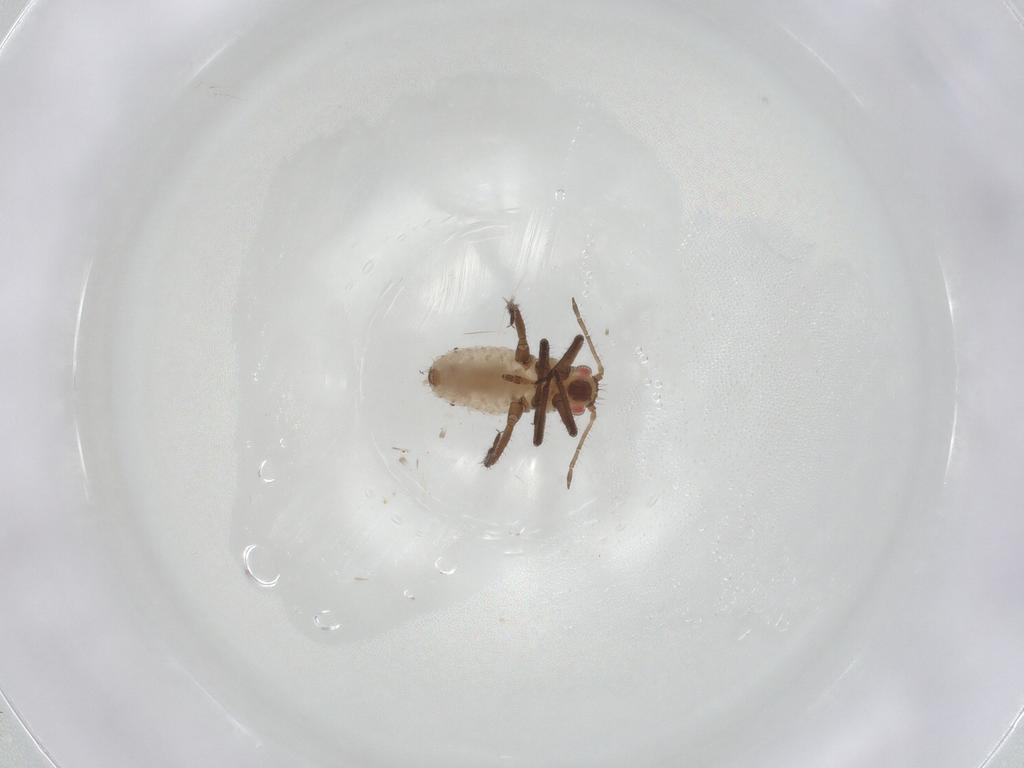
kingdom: Animalia
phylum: Arthropoda
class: Insecta
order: Hemiptera
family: Aphididae
